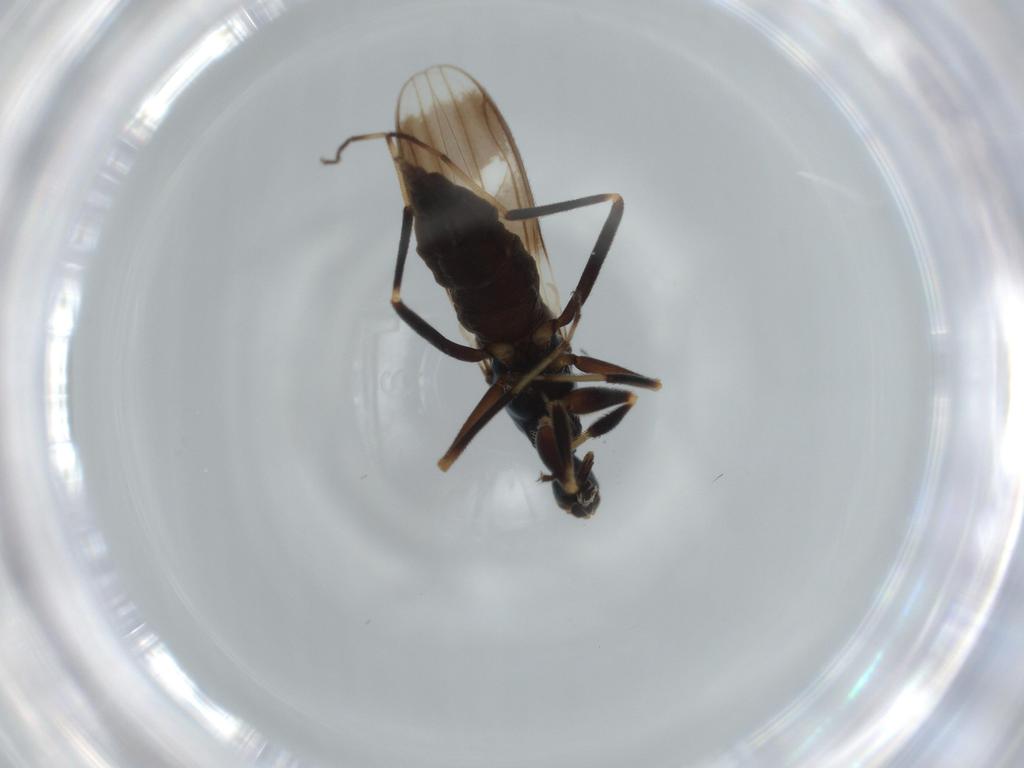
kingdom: Animalia
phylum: Arthropoda
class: Insecta
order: Diptera
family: Hybotidae
